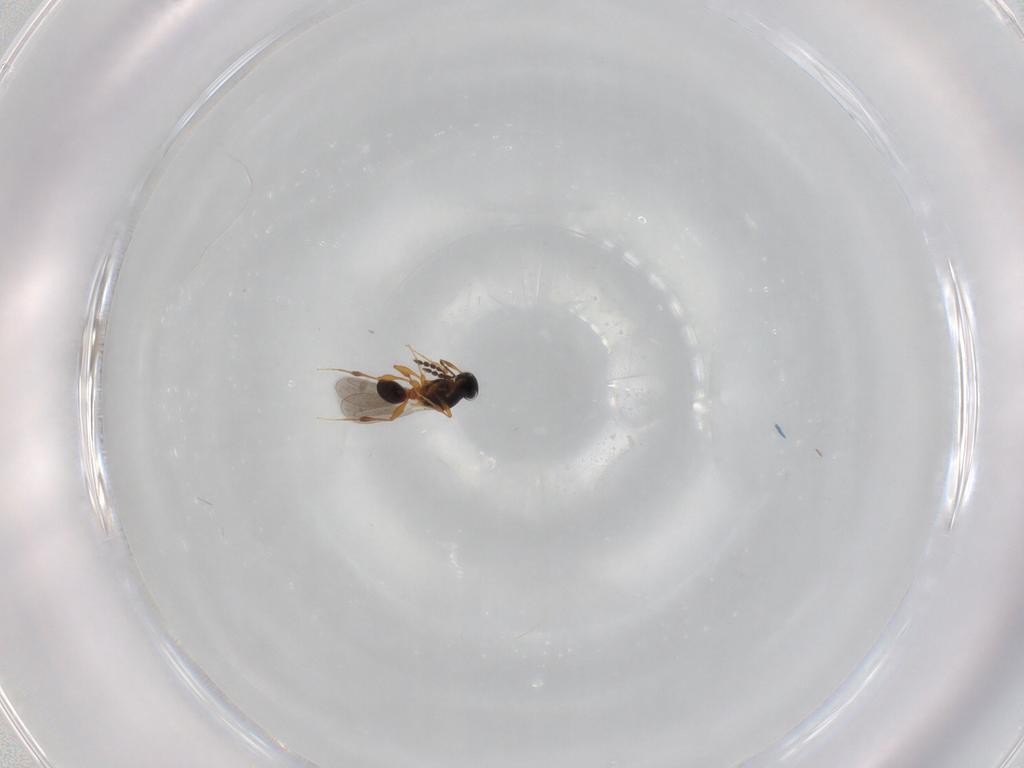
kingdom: Animalia
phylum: Arthropoda
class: Insecta
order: Hymenoptera
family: Platygastridae
